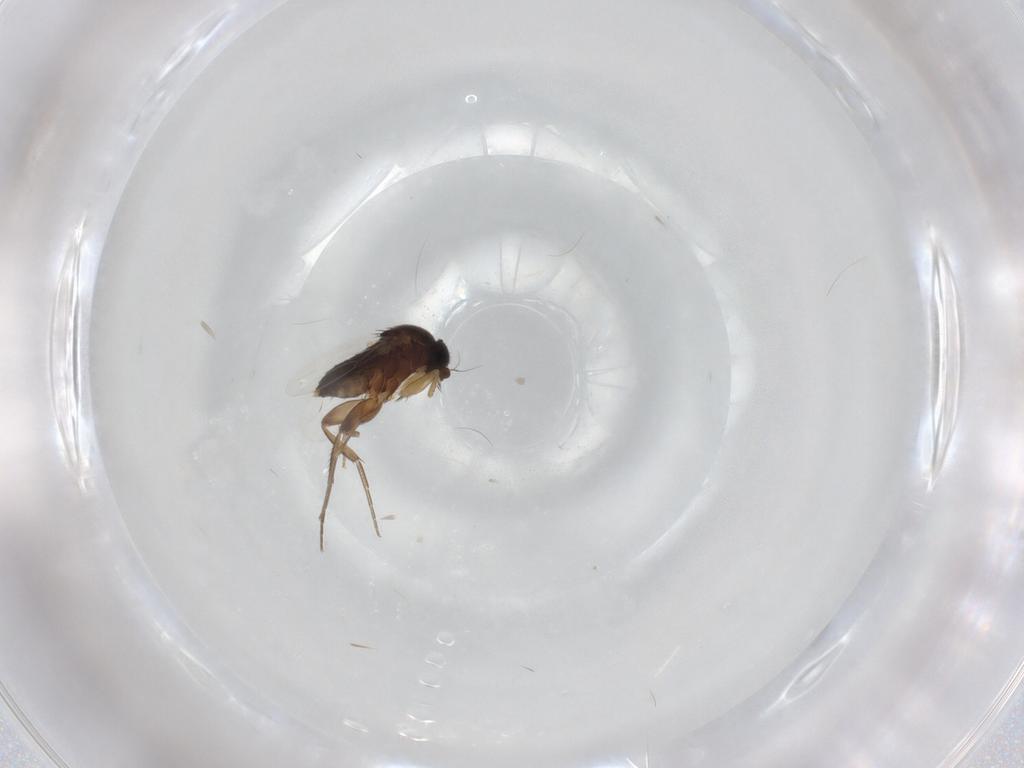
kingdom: Animalia
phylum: Arthropoda
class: Insecta
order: Diptera
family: Phoridae
